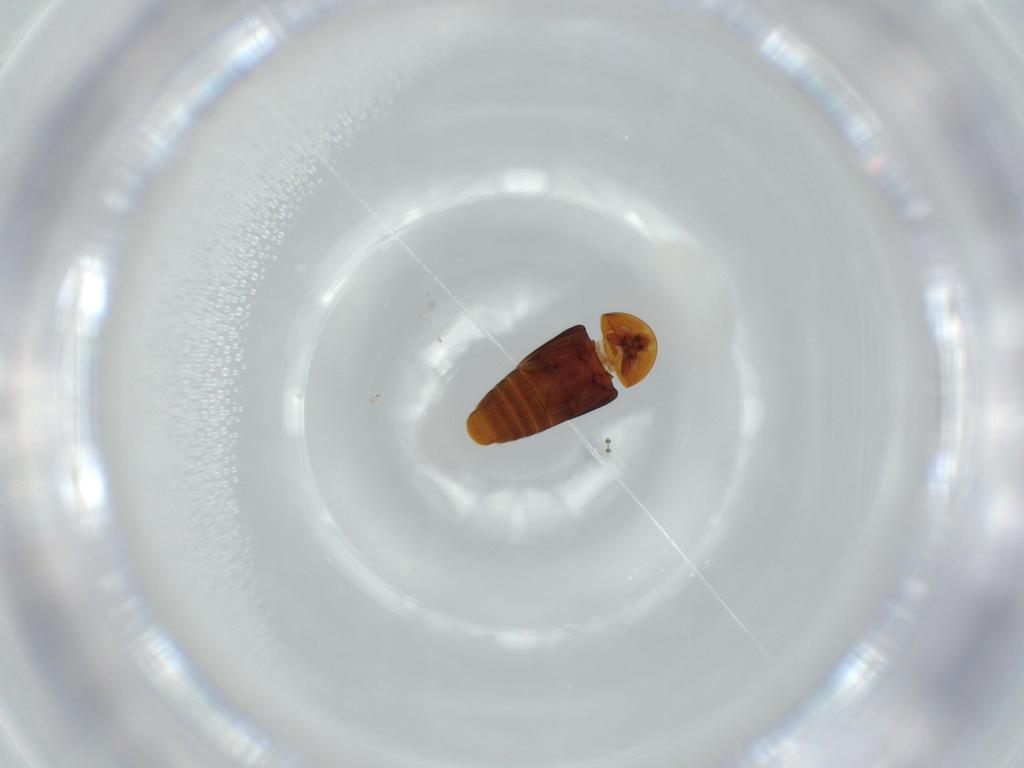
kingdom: Animalia
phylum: Arthropoda
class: Insecta
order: Coleoptera
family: Corylophidae
